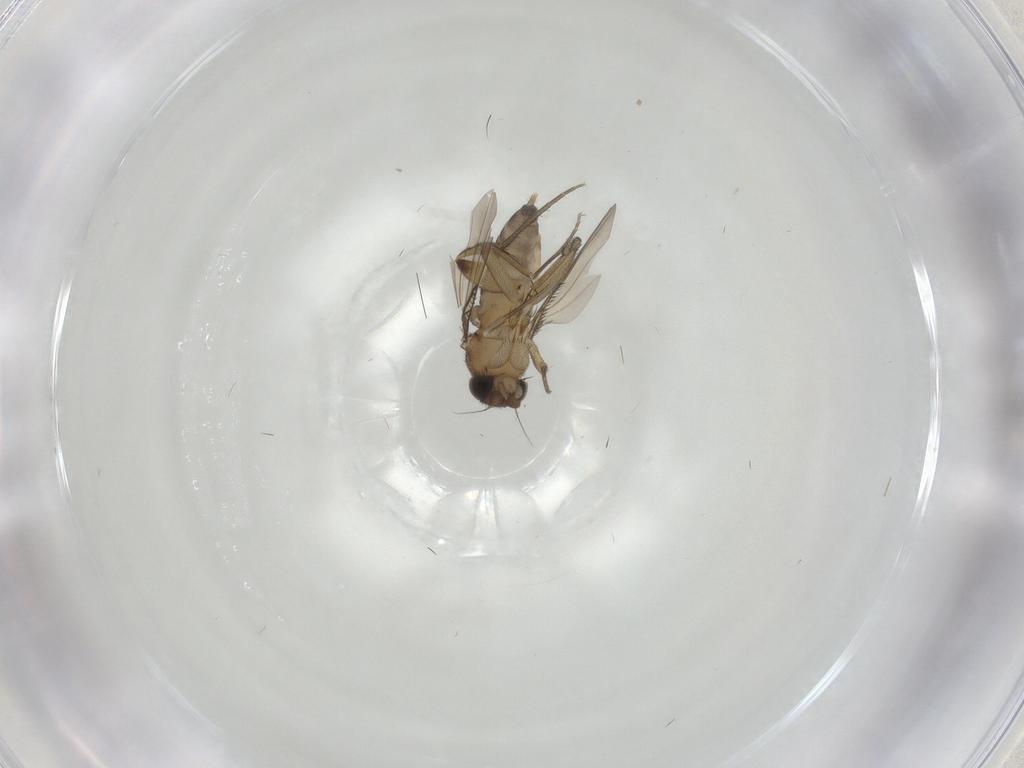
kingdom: Animalia
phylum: Arthropoda
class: Insecta
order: Diptera
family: Phoridae
